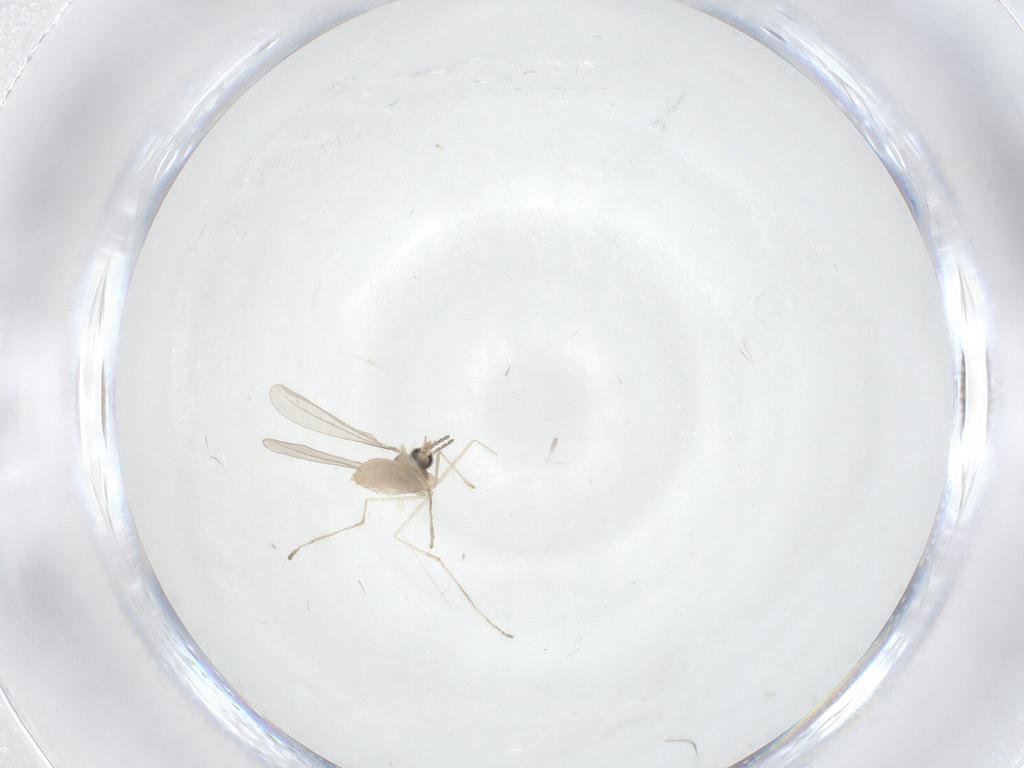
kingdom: Animalia
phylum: Arthropoda
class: Insecta
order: Diptera
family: Cecidomyiidae
